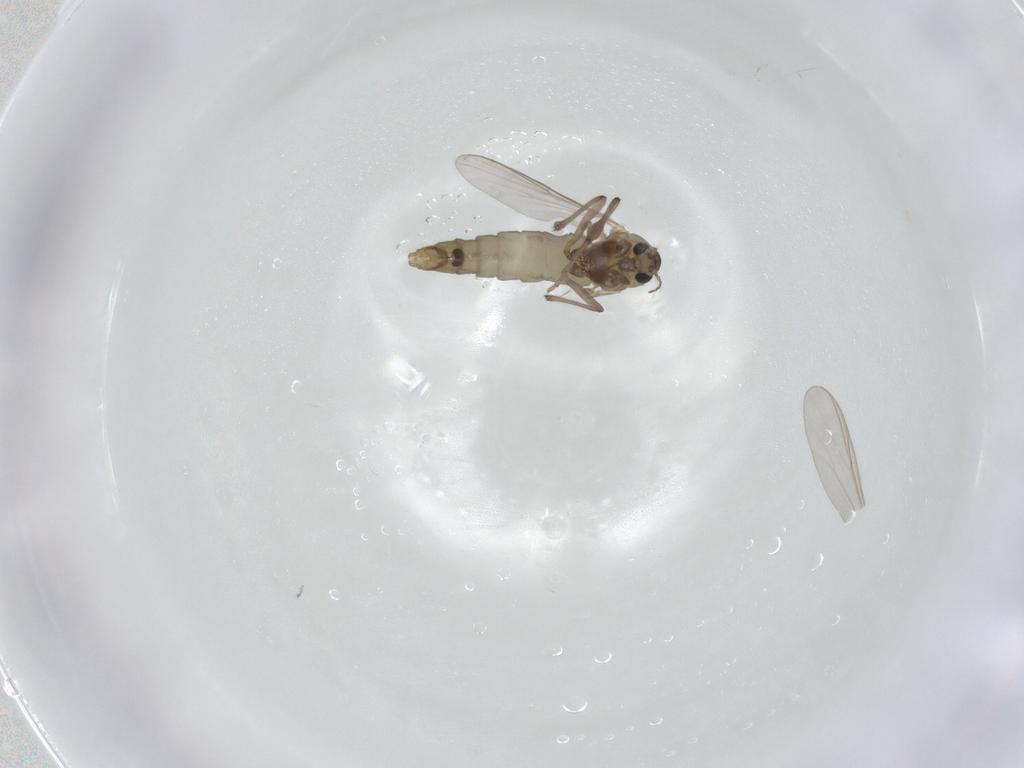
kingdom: Animalia
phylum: Arthropoda
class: Insecta
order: Diptera
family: Chironomidae
